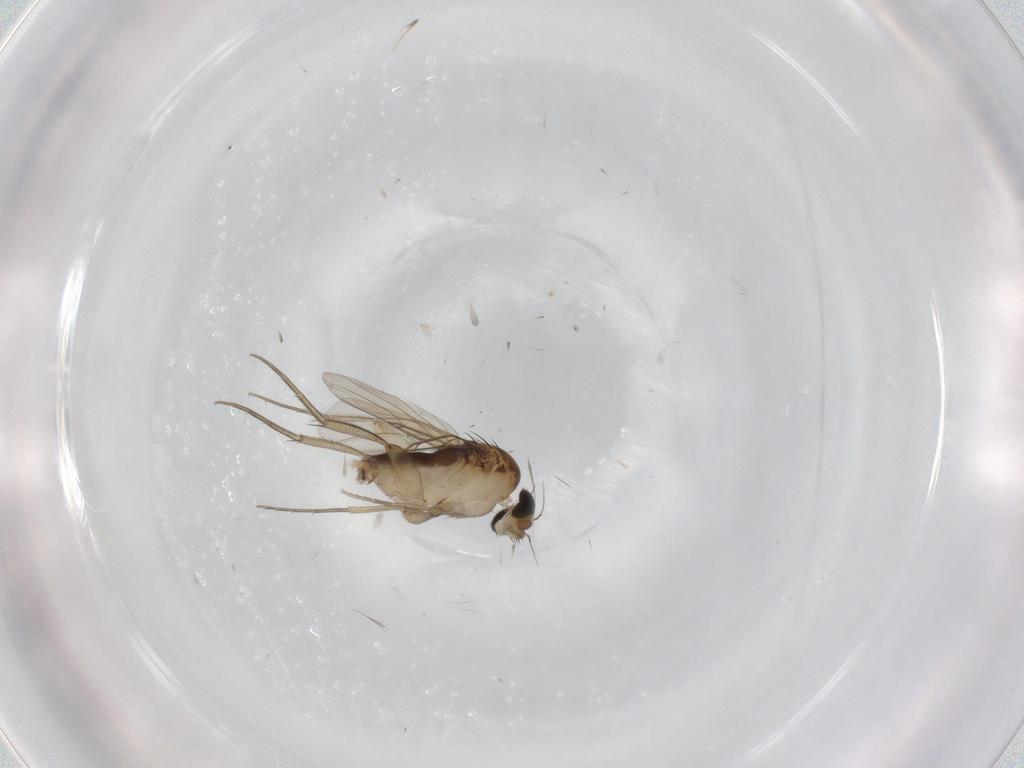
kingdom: Animalia
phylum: Arthropoda
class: Insecta
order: Diptera
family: Phoridae
